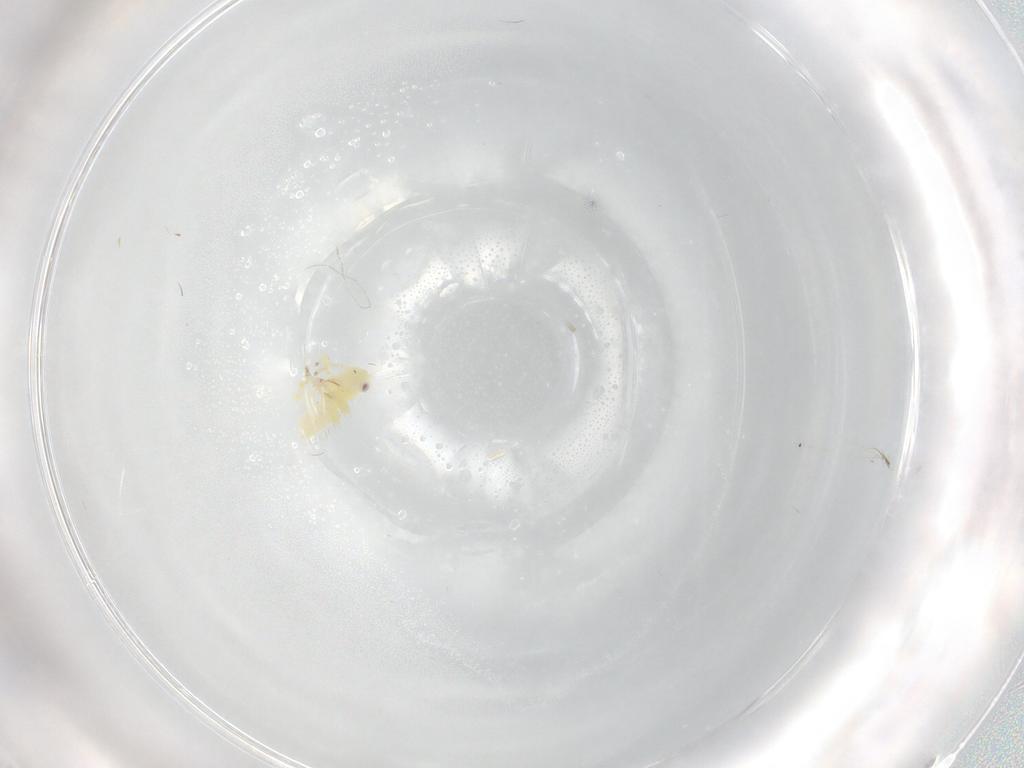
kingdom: Animalia
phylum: Arthropoda
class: Insecta
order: Hemiptera
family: Cicadellidae
